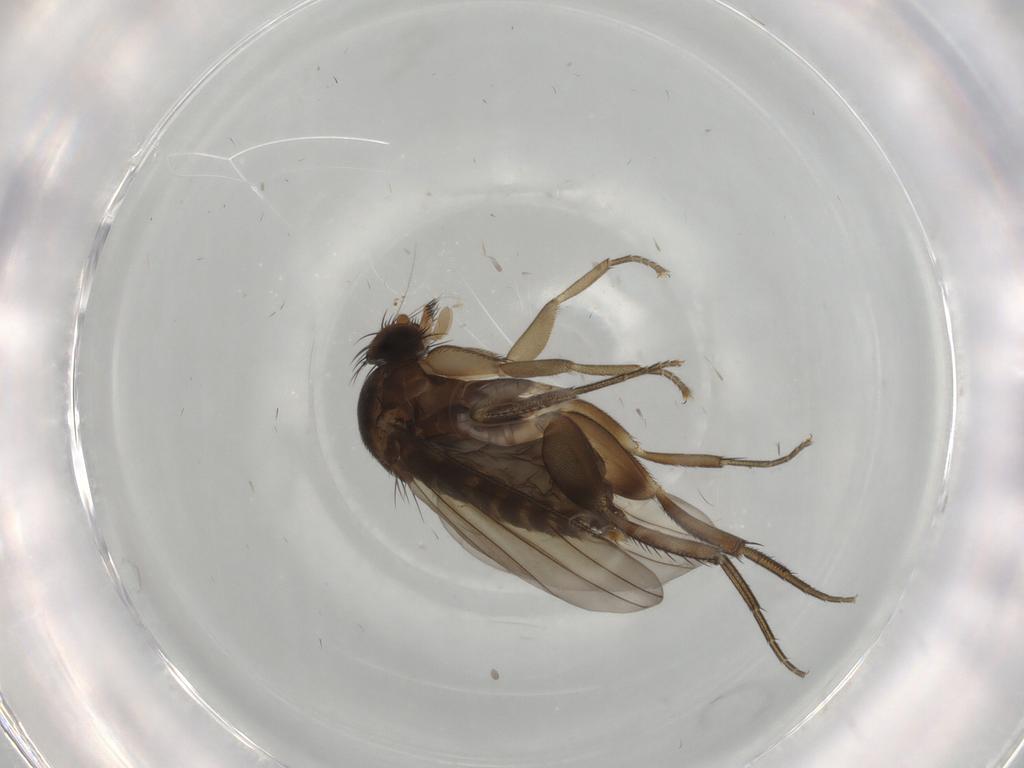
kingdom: Animalia
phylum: Arthropoda
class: Insecta
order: Diptera
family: Phoridae
